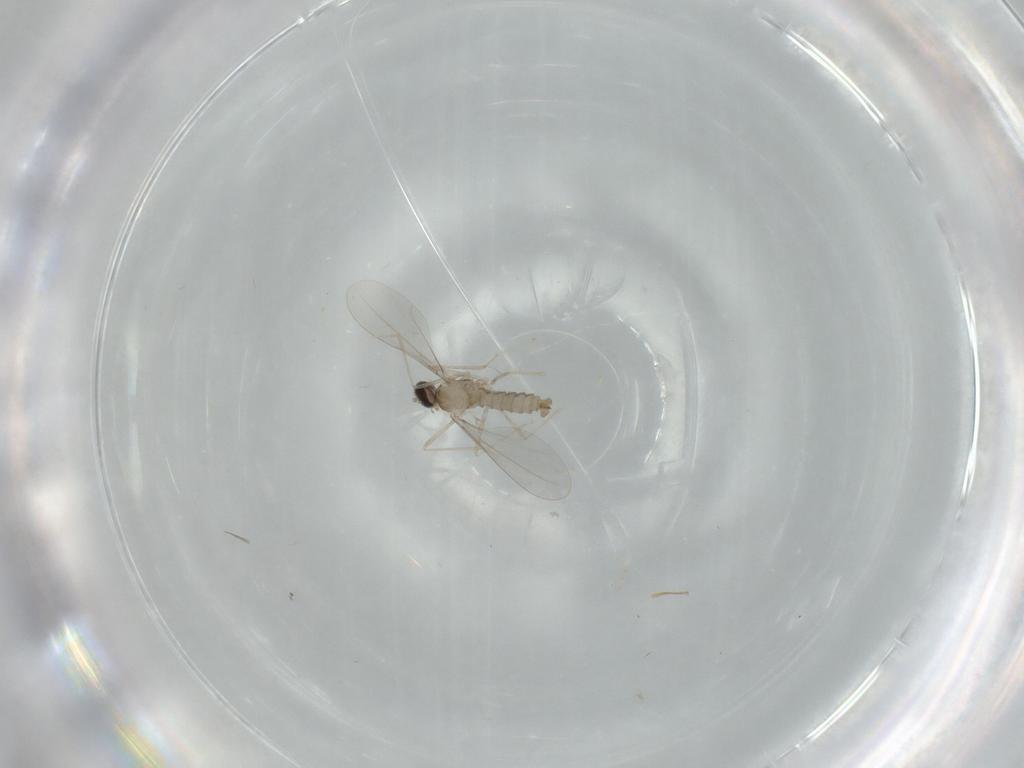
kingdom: Animalia
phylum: Arthropoda
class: Insecta
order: Diptera
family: Cecidomyiidae
